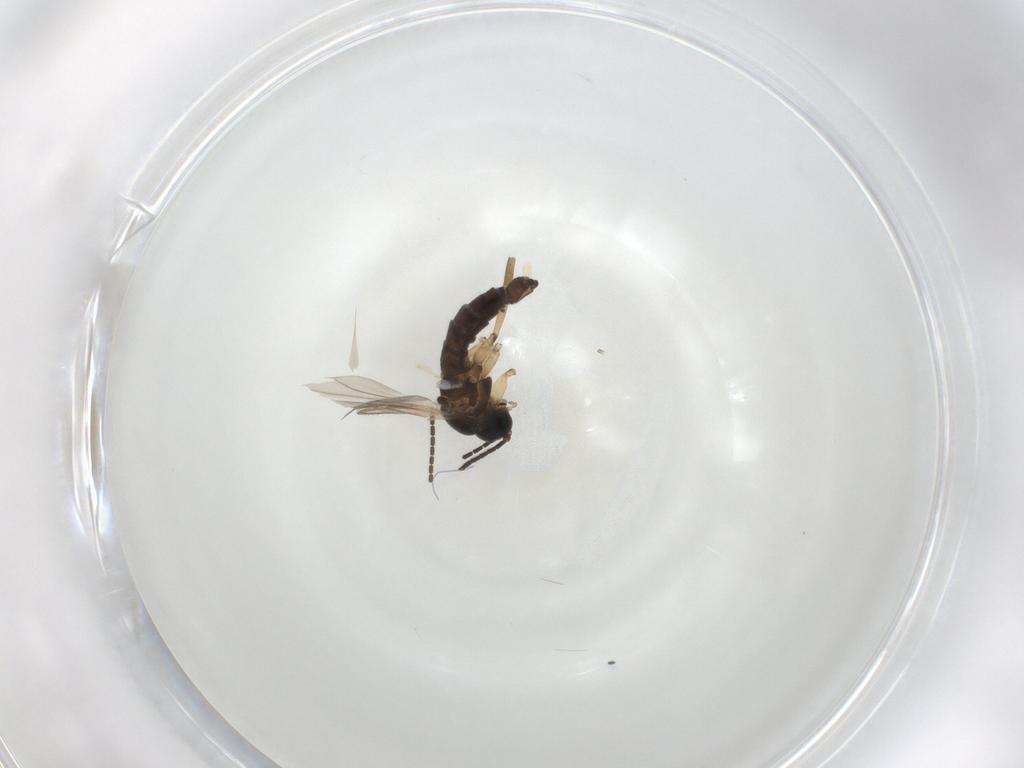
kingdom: Animalia
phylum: Arthropoda
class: Insecta
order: Diptera
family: Sciaridae
